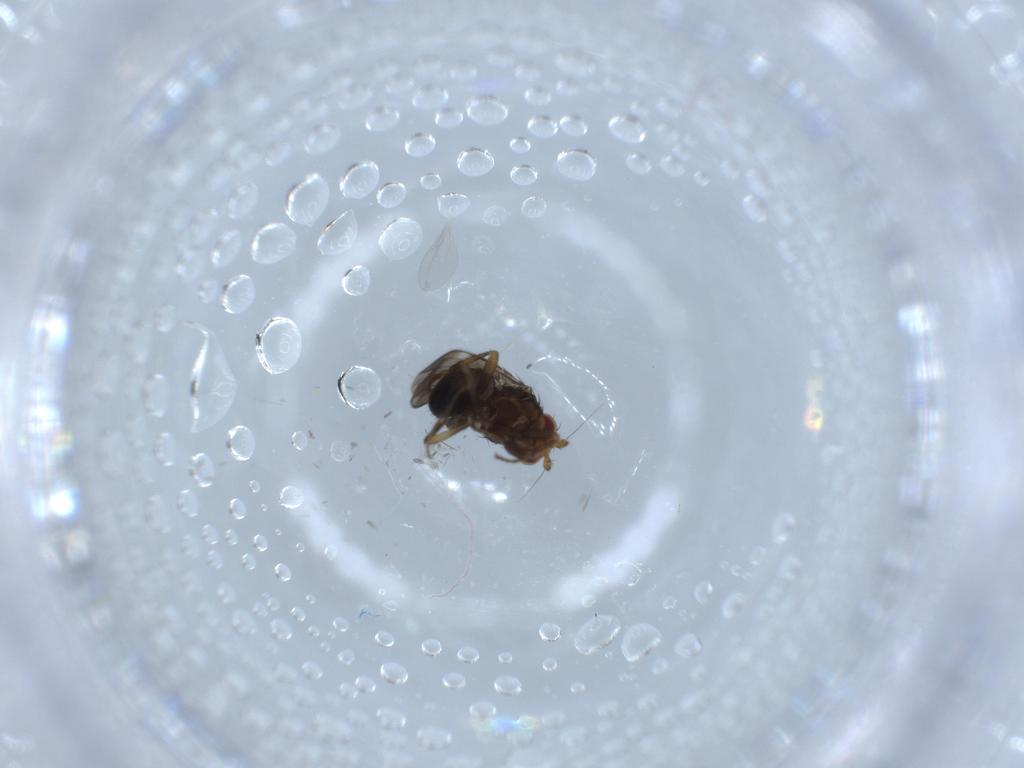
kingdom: Animalia
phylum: Arthropoda
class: Insecta
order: Diptera
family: Sphaeroceridae
